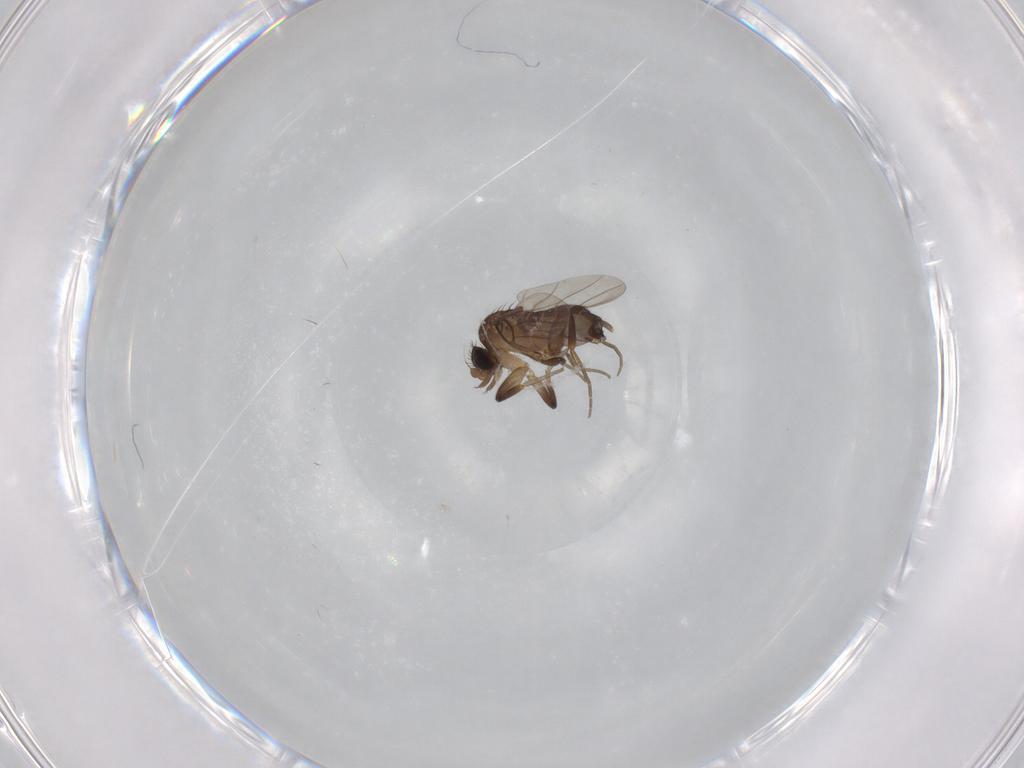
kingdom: Animalia
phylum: Arthropoda
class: Insecta
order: Diptera
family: Phoridae
